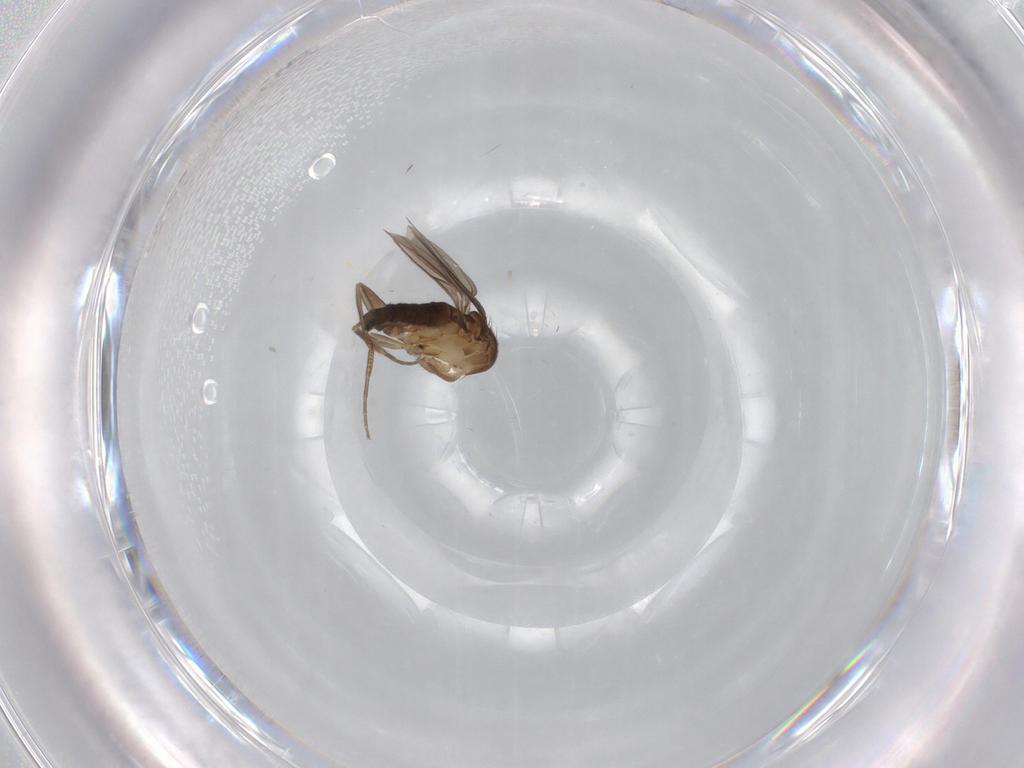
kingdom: Animalia
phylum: Arthropoda
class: Insecta
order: Diptera
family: Sciaridae
